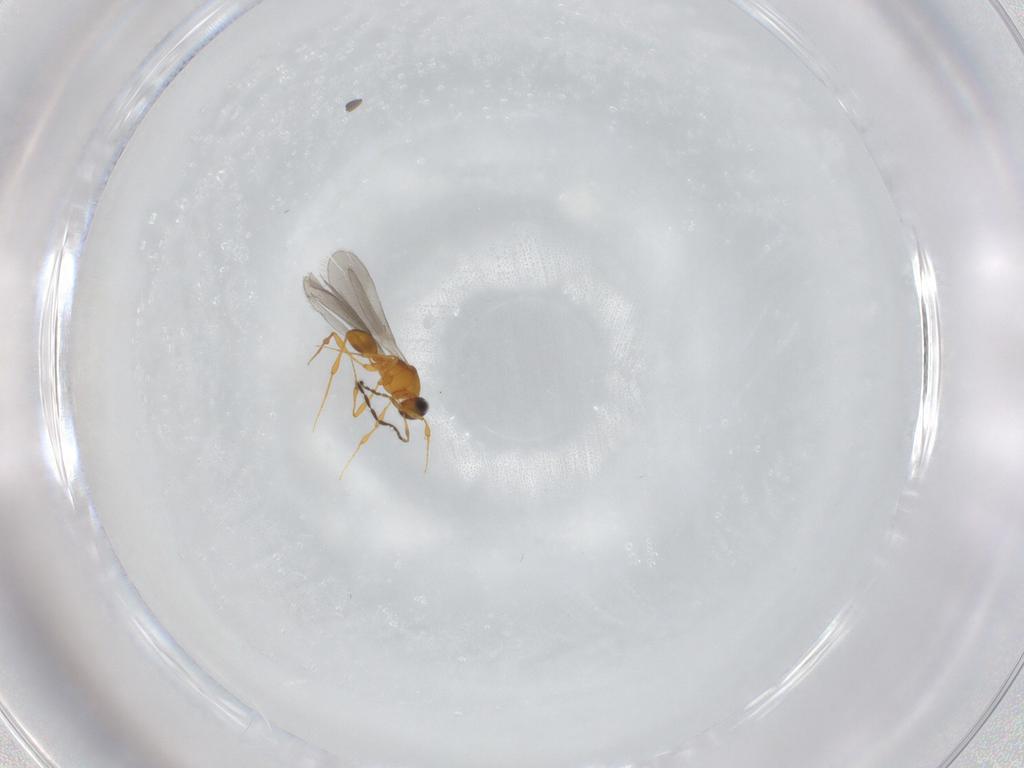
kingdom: Animalia
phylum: Arthropoda
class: Insecta
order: Hymenoptera
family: Platygastridae
